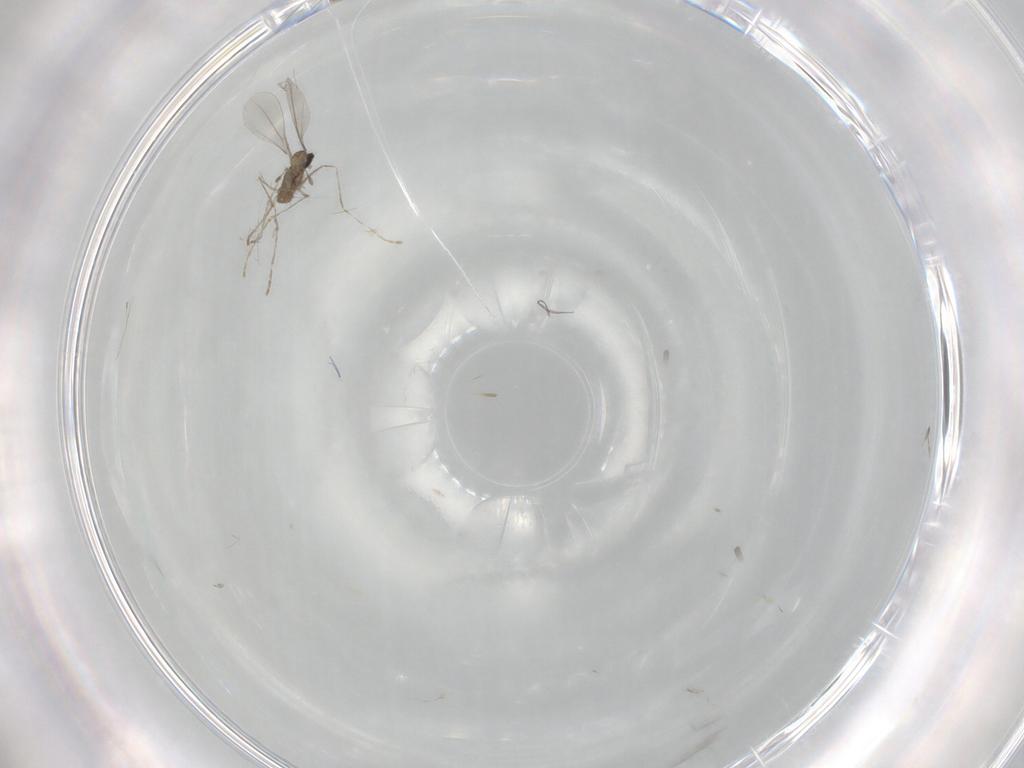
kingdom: Animalia
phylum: Arthropoda
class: Insecta
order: Diptera
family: Cecidomyiidae
